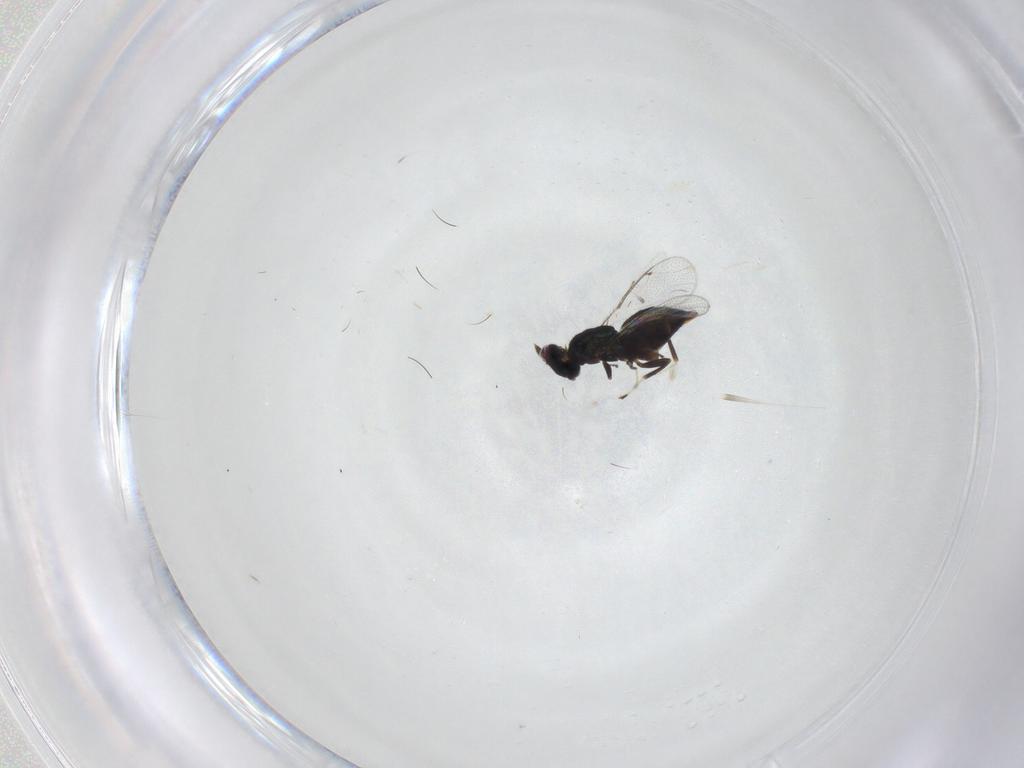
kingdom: Animalia
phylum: Arthropoda
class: Insecta
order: Hymenoptera
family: Eulophidae
